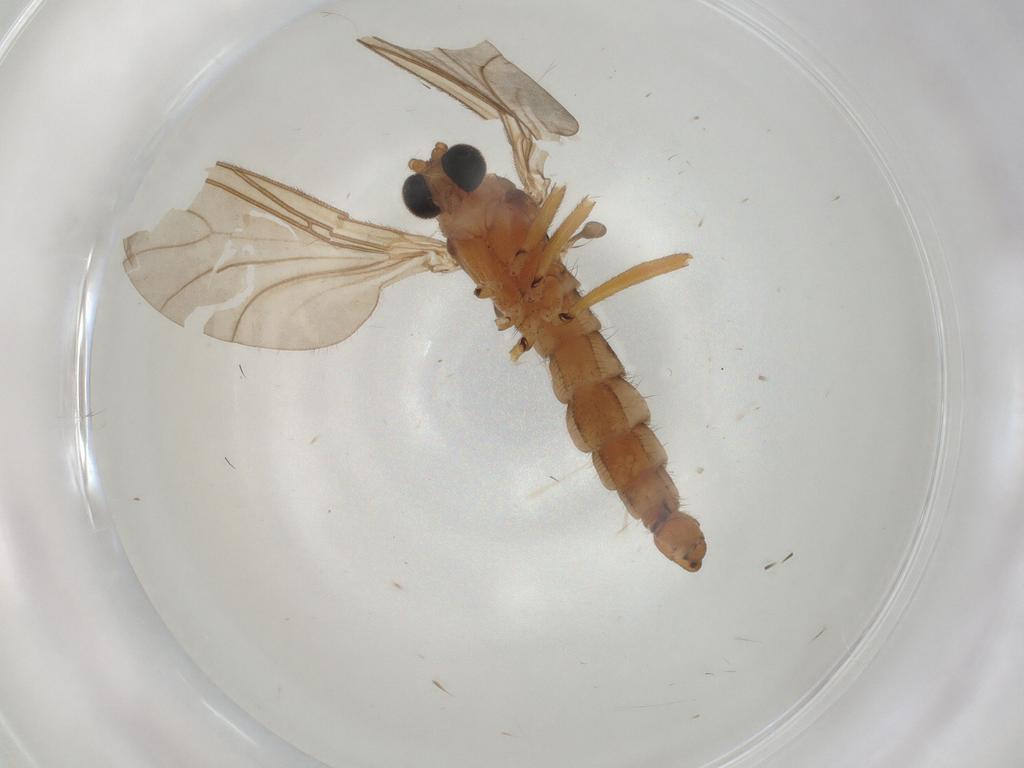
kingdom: Animalia
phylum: Arthropoda
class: Insecta
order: Diptera
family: Sciaridae
